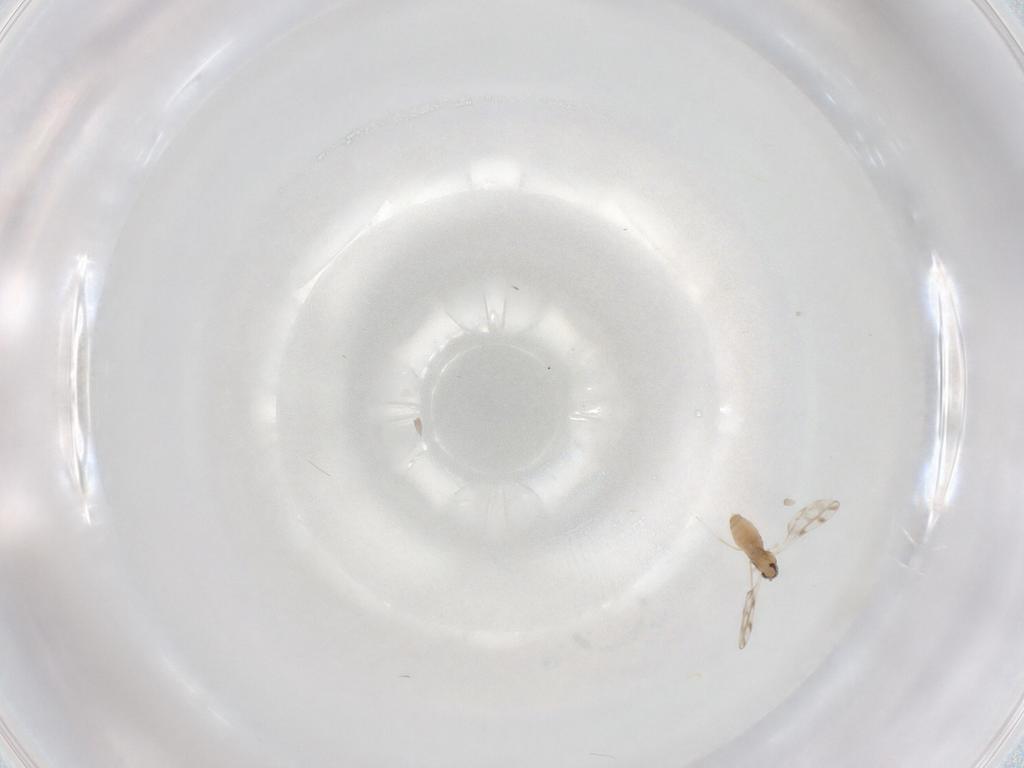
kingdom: Animalia
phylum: Arthropoda
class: Insecta
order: Diptera
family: Cecidomyiidae
